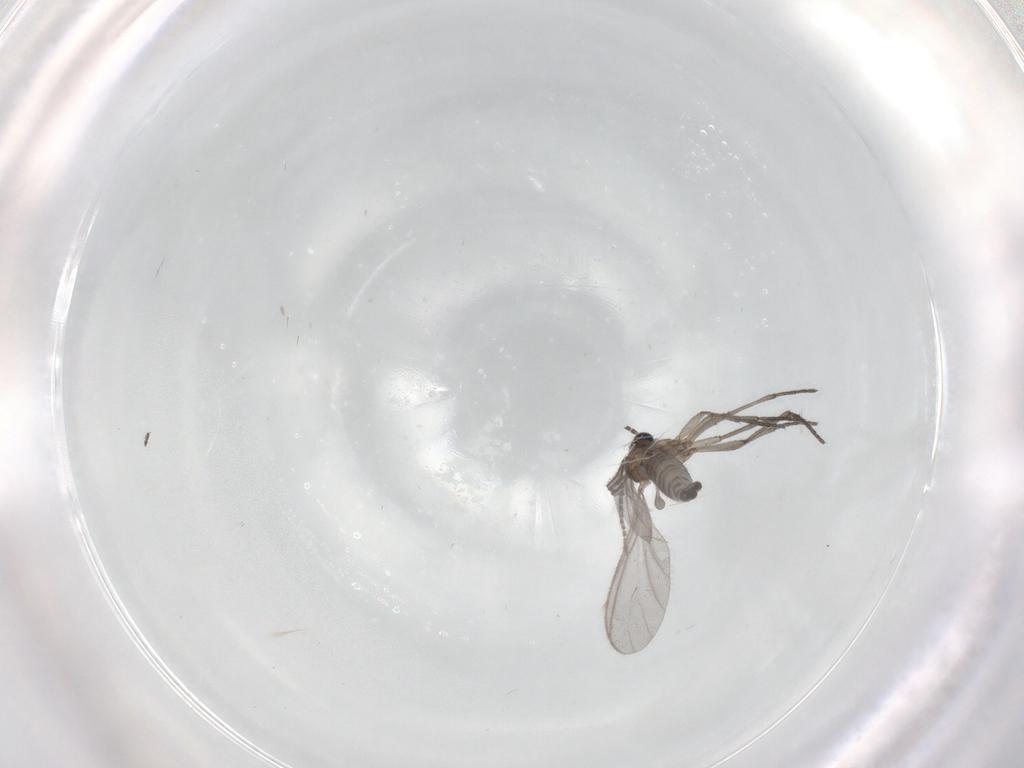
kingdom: Animalia
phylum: Arthropoda
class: Insecta
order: Diptera
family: Sciaridae
